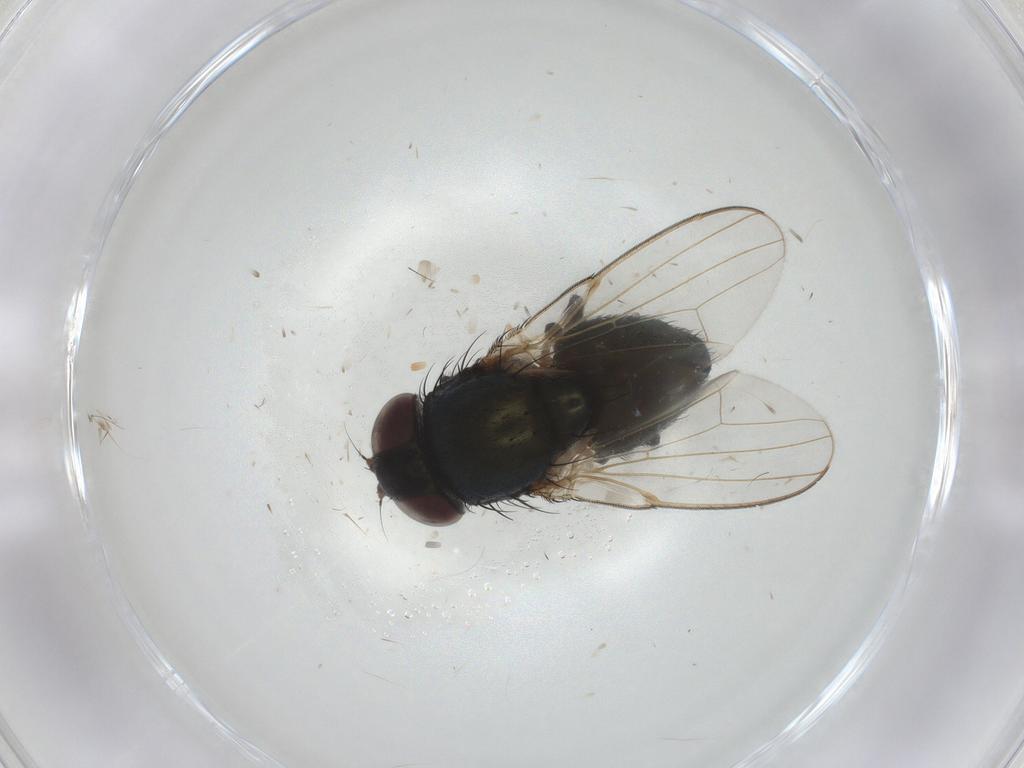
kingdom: Animalia
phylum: Arthropoda
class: Insecta
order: Diptera
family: Milichiidae
